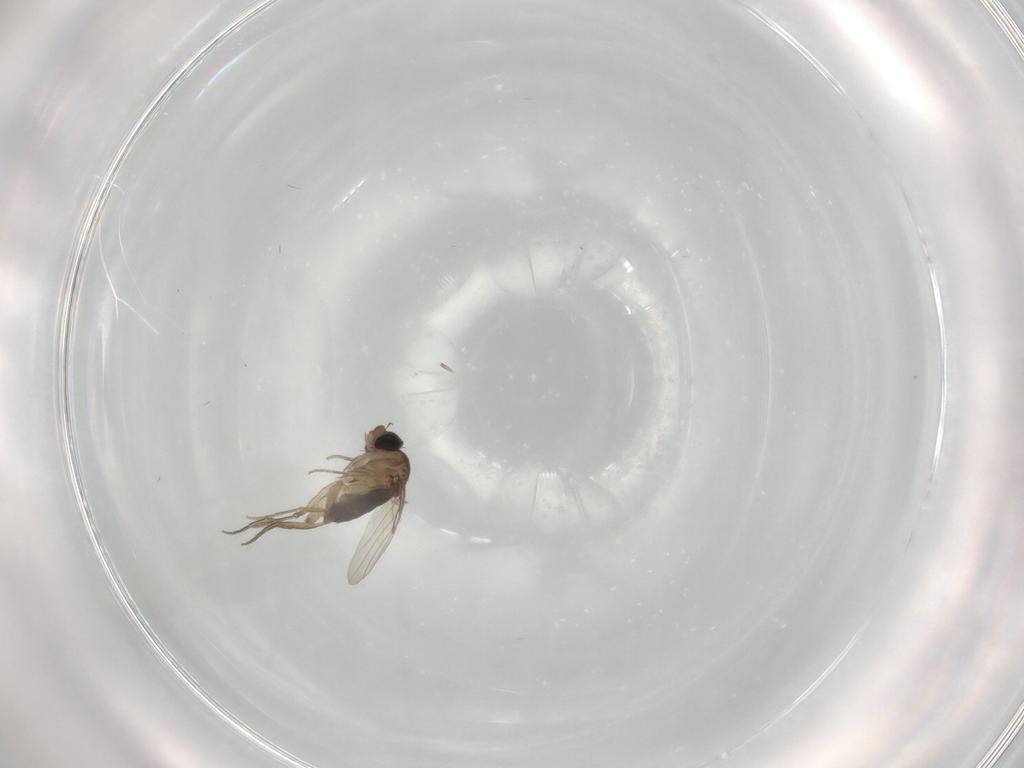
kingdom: Animalia
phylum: Arthropoda
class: Insecta
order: Diptera
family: Phoridae
